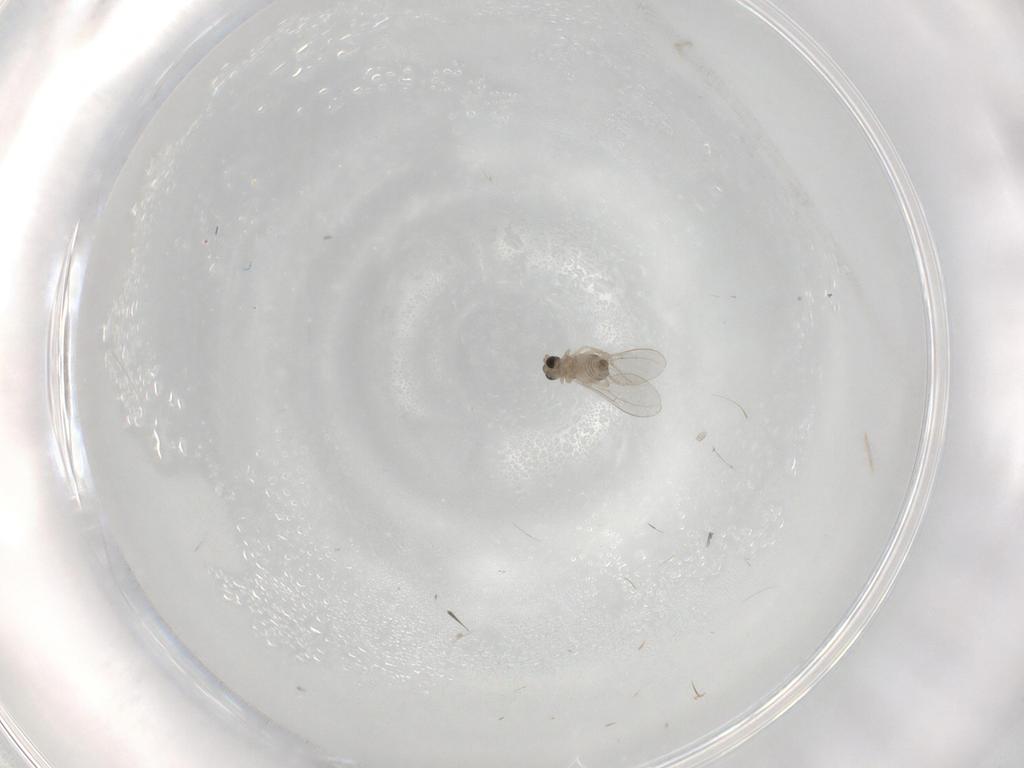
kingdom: Animalia
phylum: Arthropoda
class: Insecta
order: Diptera
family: Cecidomyiidae
